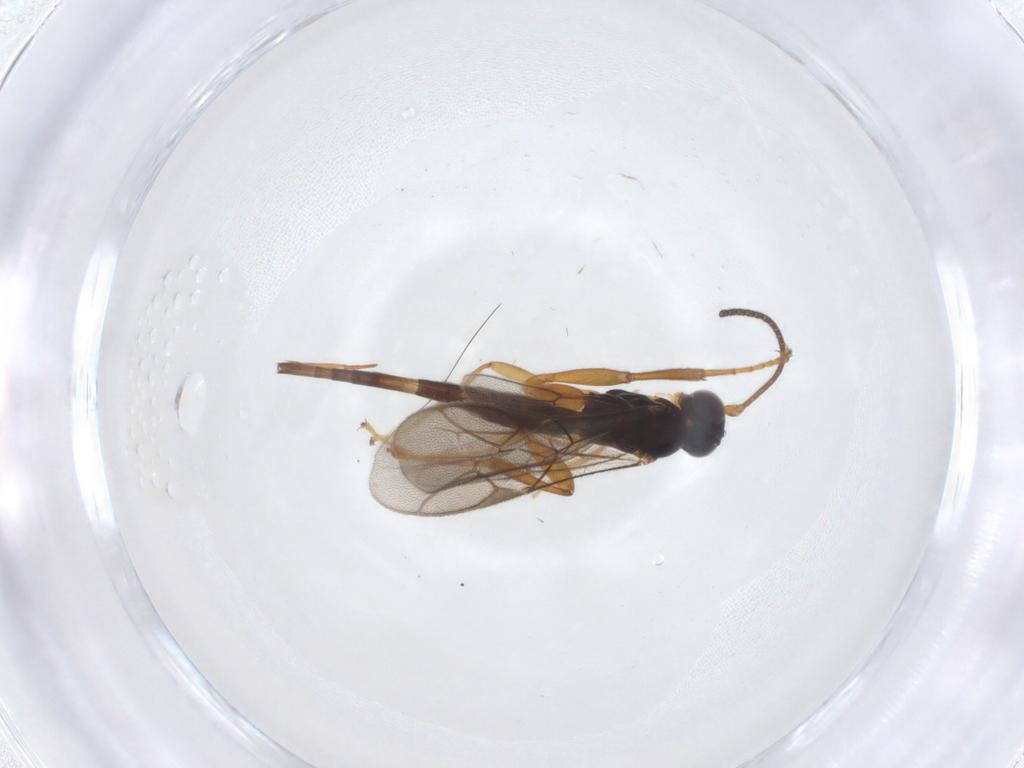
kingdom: Animalia
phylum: Arthropoda
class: Insecta
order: Hymenoptera
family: Ichneumonidae
